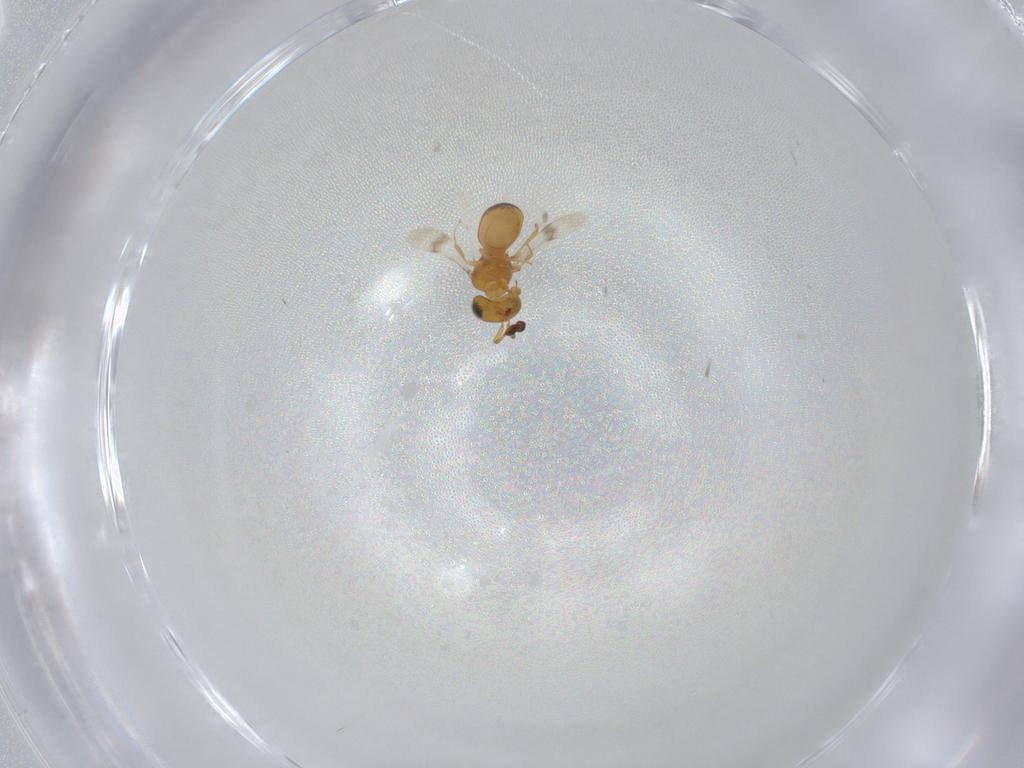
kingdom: Animalia
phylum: Arthropoda
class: Insecta
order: Hymenoptera
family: Scelionidae
